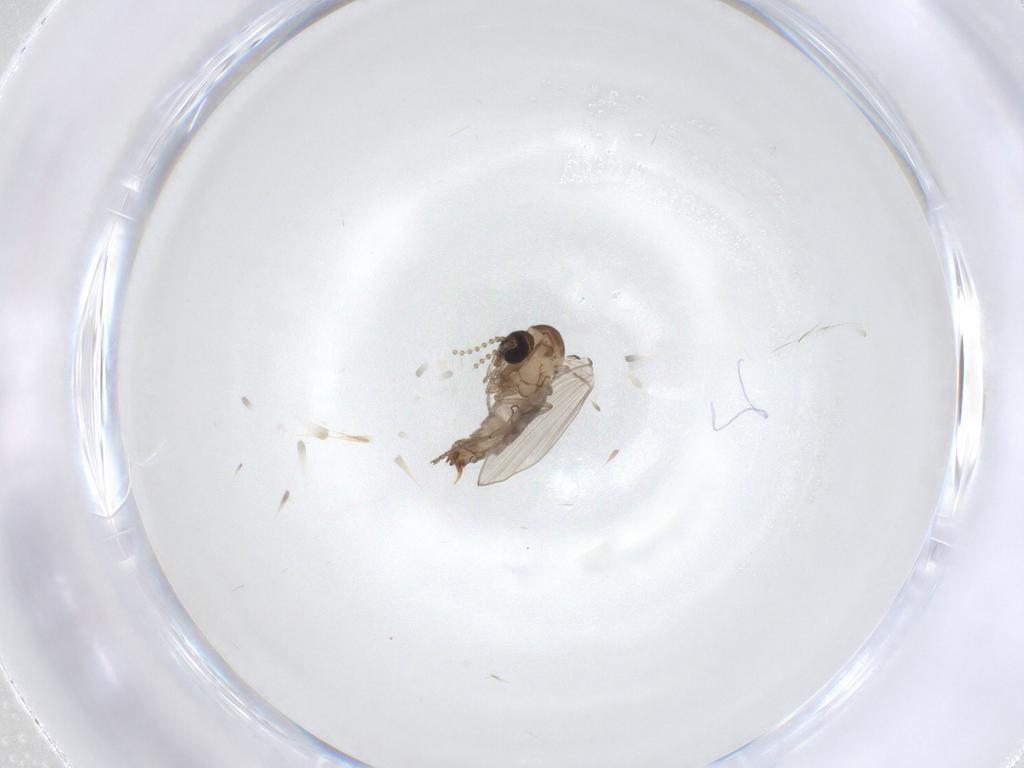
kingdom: Animalia
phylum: Arthropoda
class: Insecta
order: Diptera
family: Psychodidae
